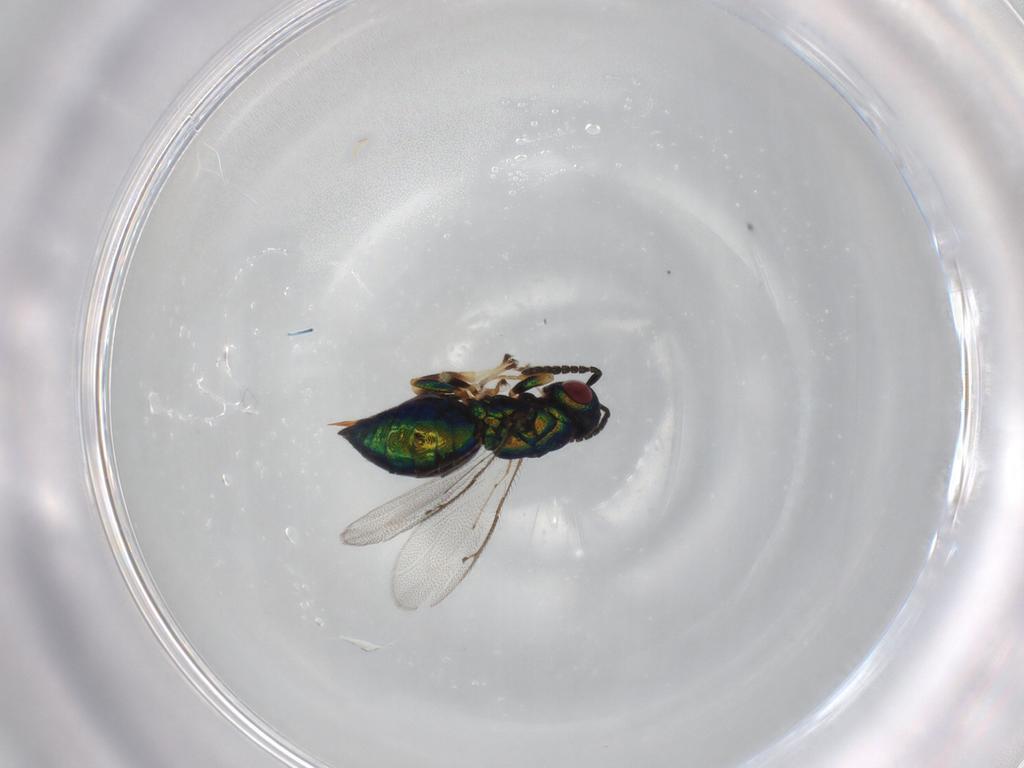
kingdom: Animalia
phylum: Arthropoda
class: Insecta
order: Hymenoptera
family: Pteromalidae
